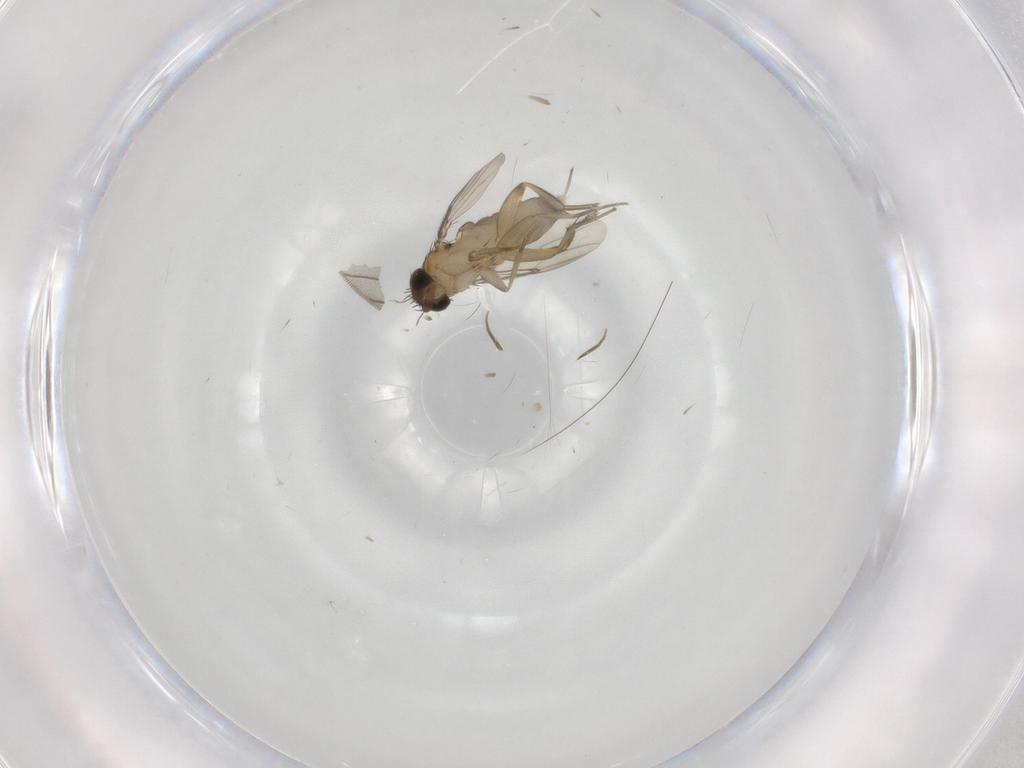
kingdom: Animalia
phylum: Arthropoda
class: Insecta
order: Diptera
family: Phoridae
